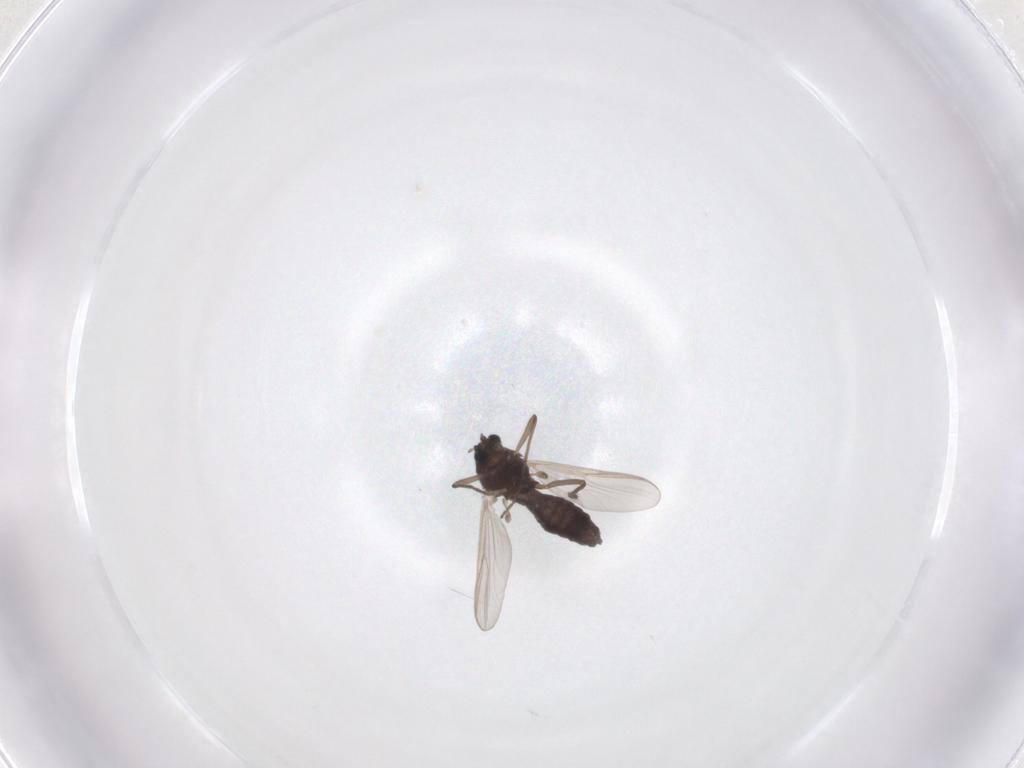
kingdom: Animalia
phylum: Arthropoda
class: Insecta
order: Diptera
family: Chironomidae
